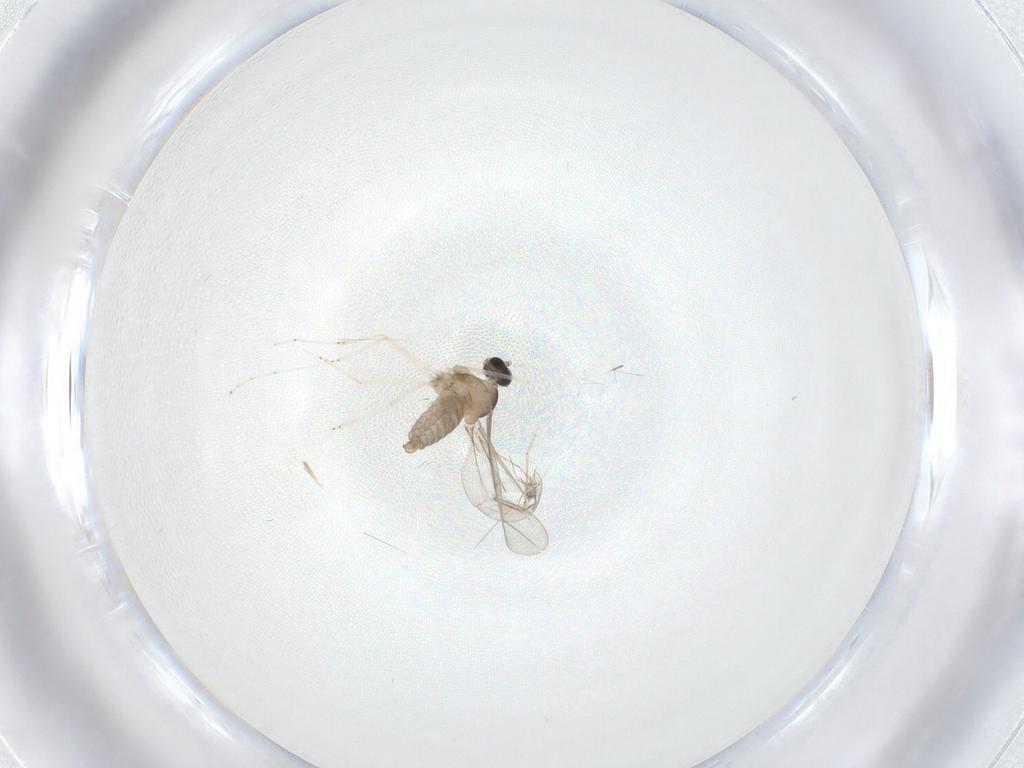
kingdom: Animalia
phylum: Arthropoda
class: Insecta
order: Diptera
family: Cecidomyiidae
